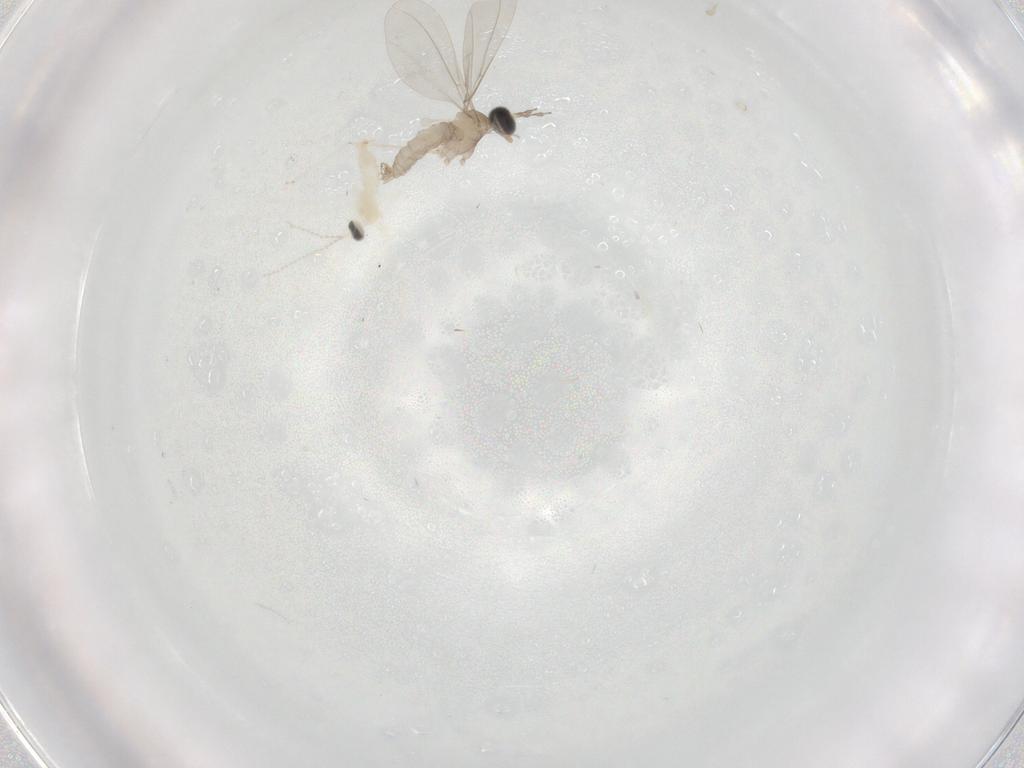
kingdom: Animalia
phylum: Arthropoda
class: Insecta
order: Diptera
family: Cecidomyiidae
